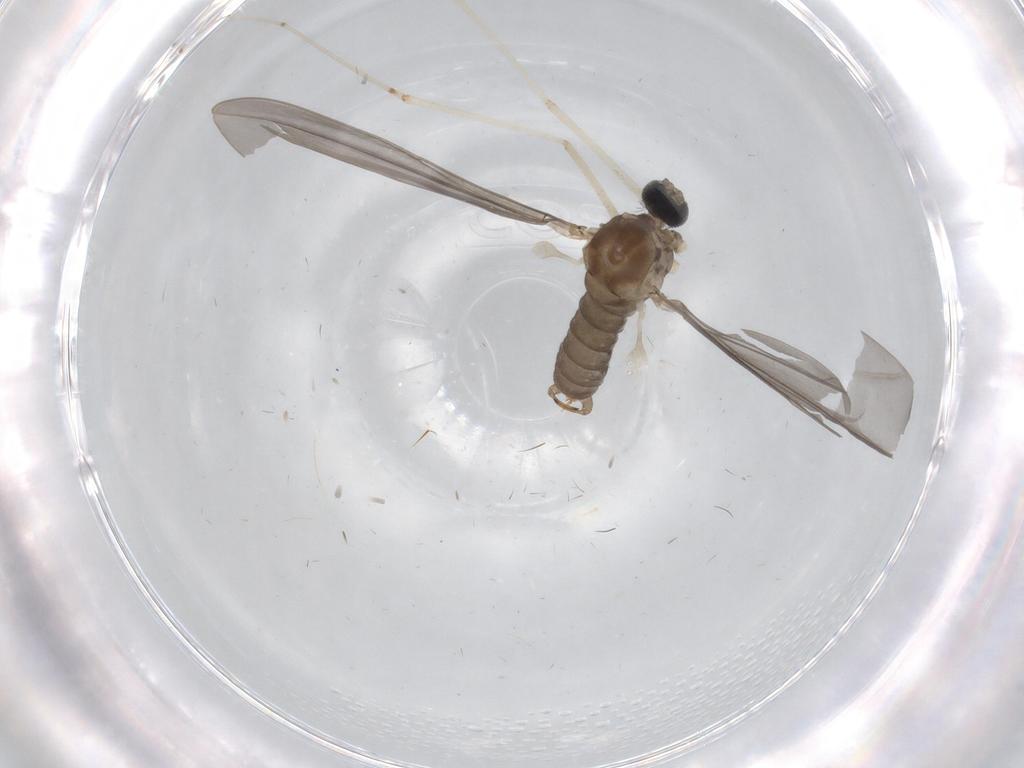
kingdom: Animalia
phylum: Arthropoda
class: Insecta
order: Diptera
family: Cecidomyiidae
